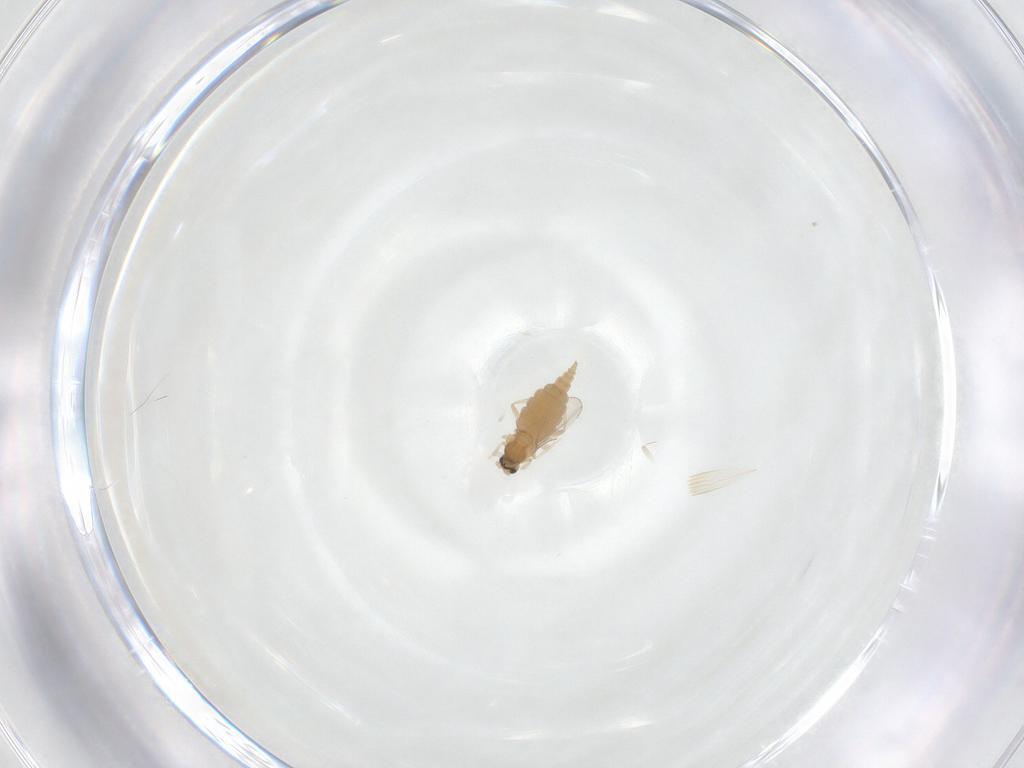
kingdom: Animalia
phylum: Arthropoda
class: Insecta
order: Diptera
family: Cecidomyiidae
